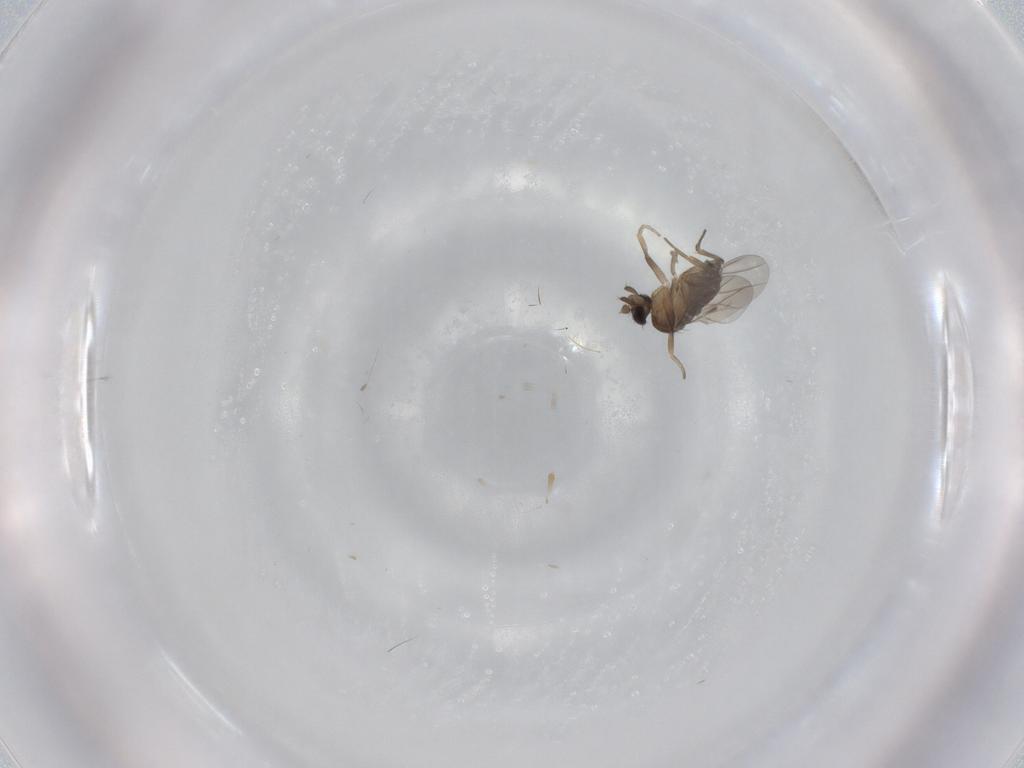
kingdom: Animalia
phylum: Arthropoda
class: Insecta
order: Diptera
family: Phoridae
